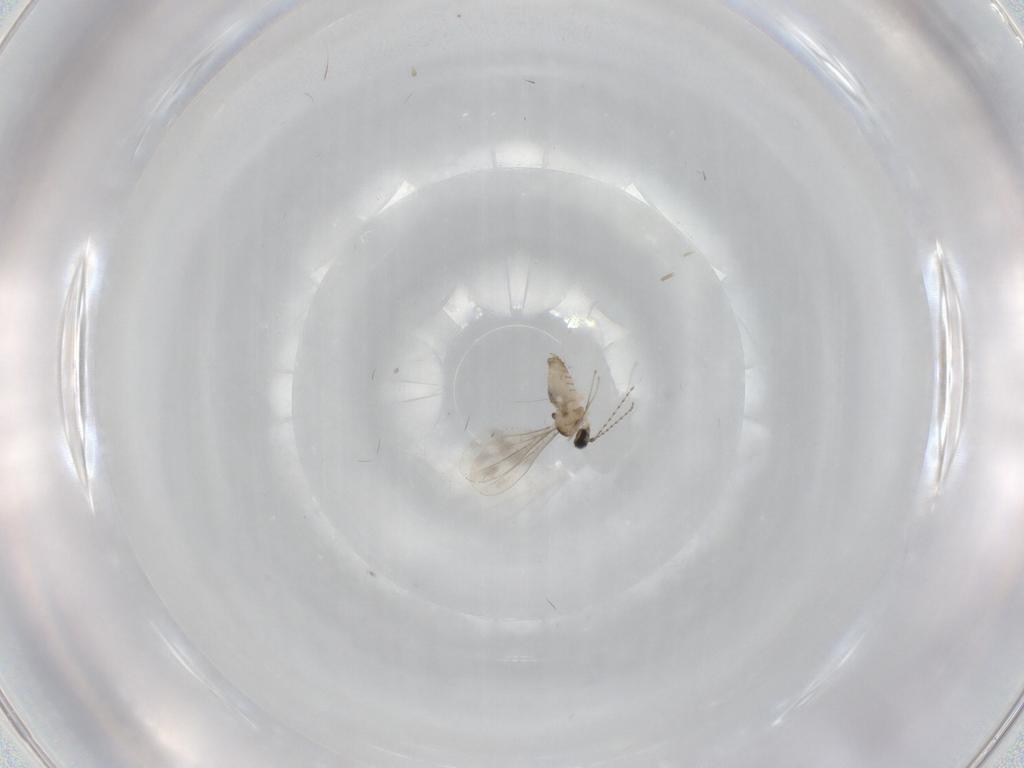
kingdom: Animalia
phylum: Arthropoda
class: Insecta
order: Diptera
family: Cecidomyiidae
